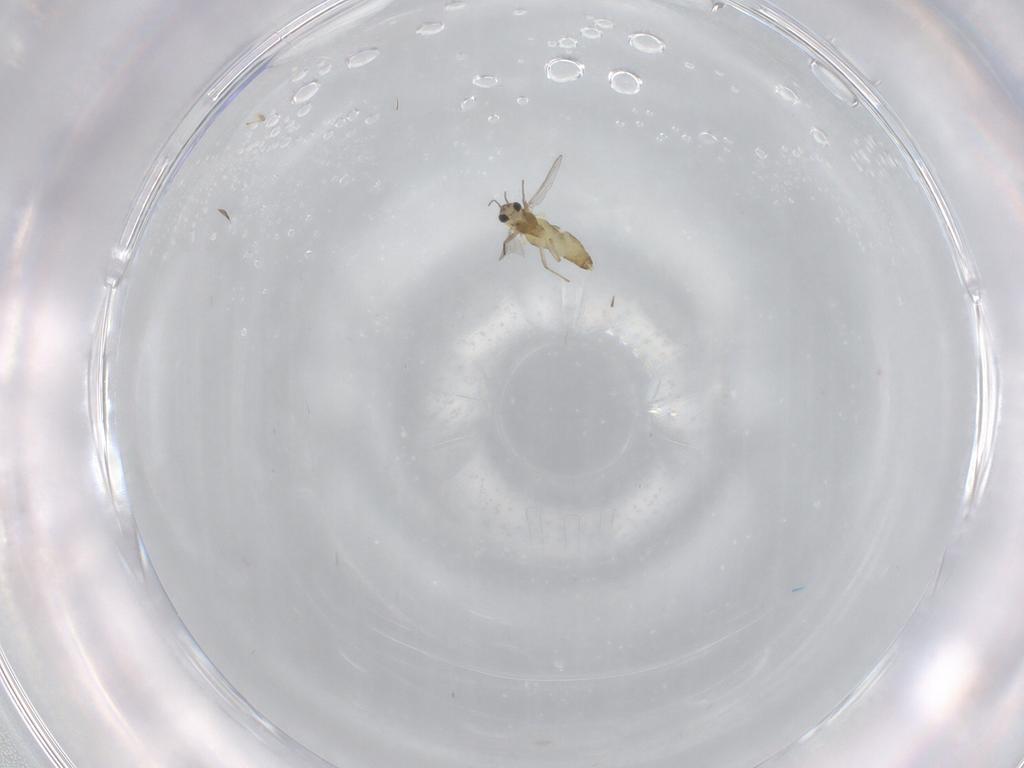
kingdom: Animalia
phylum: Arthropoda
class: Insecta
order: Diptera
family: Chironomidae
